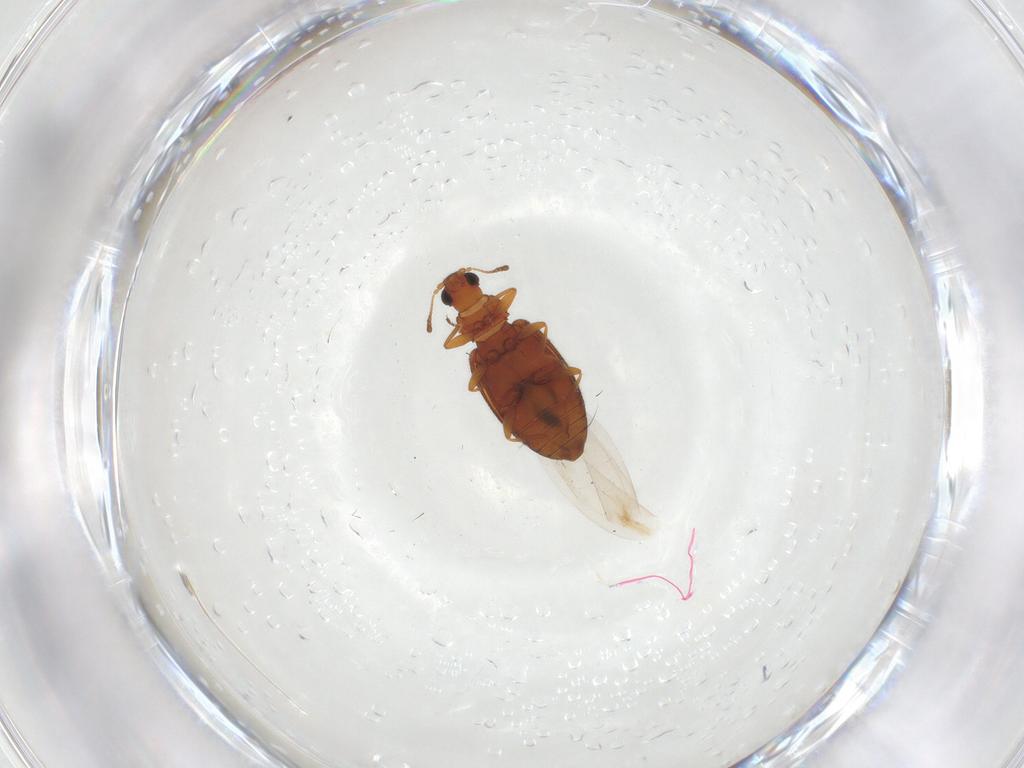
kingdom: Animalia
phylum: Arthropoda
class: Insecta
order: Coleoptera
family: Latridiidae
